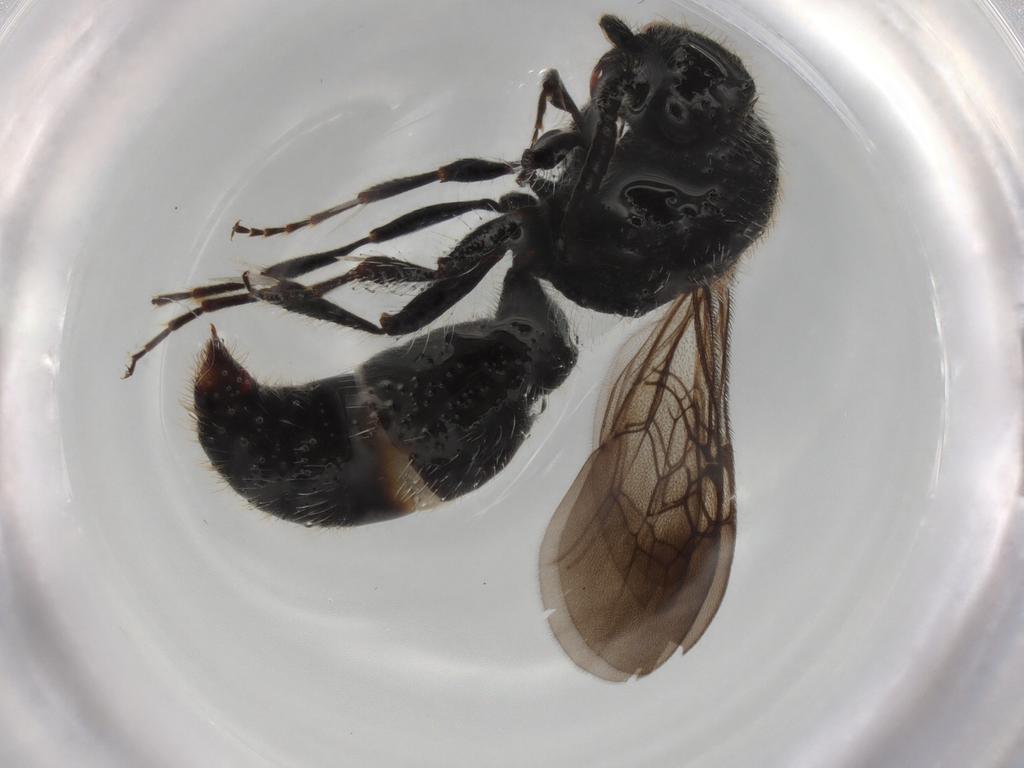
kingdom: Animalia
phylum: Arthropoda
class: Insecta
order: Hymenoptera
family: Mutillidae
